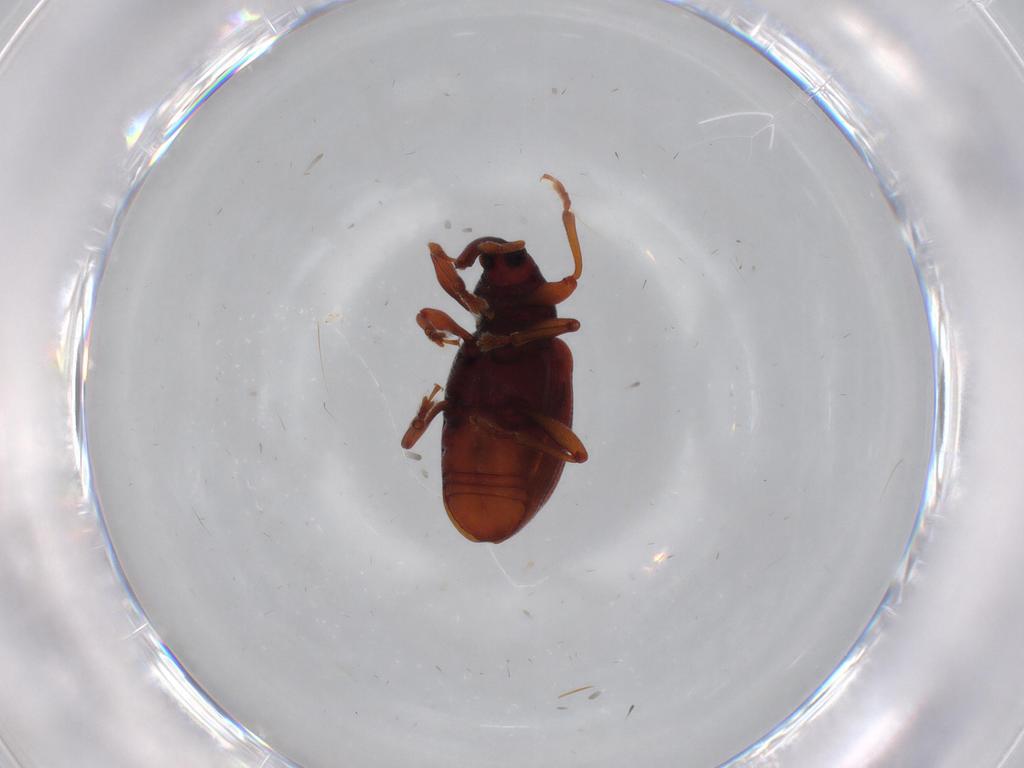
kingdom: Animalia
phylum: Arthropoda
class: Insecta
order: Coleoptera
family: Curculionidae
